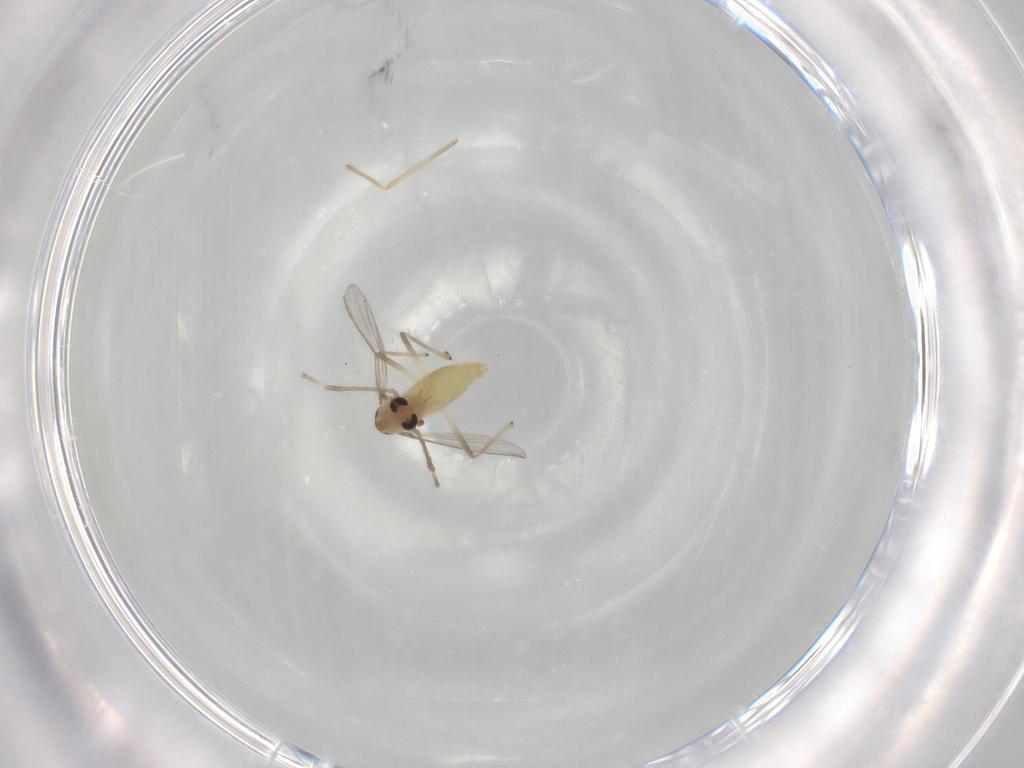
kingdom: Animalia
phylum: Arthropoda
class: Insecta
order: Diptera
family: Chironomidae
